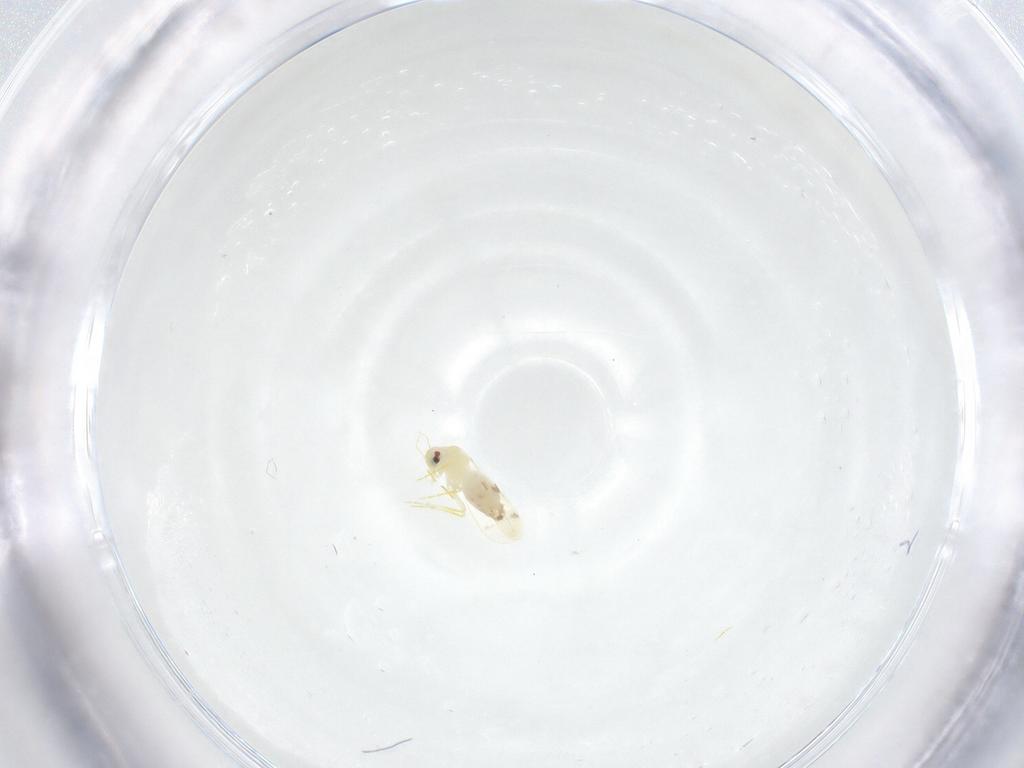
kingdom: Animalia
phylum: Arthropoda
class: Insecta
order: Hemiptera
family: Aleyrodidae
